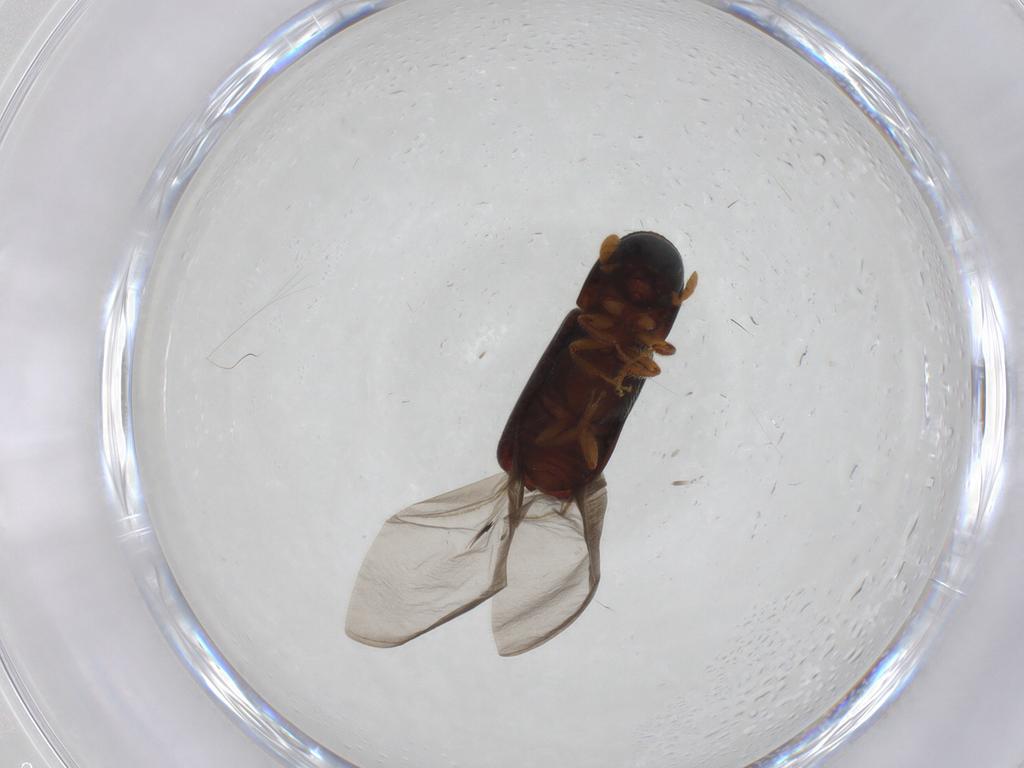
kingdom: Animalia
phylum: Arthropoda
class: Insecta
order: Coleoptera
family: Curculionidae
